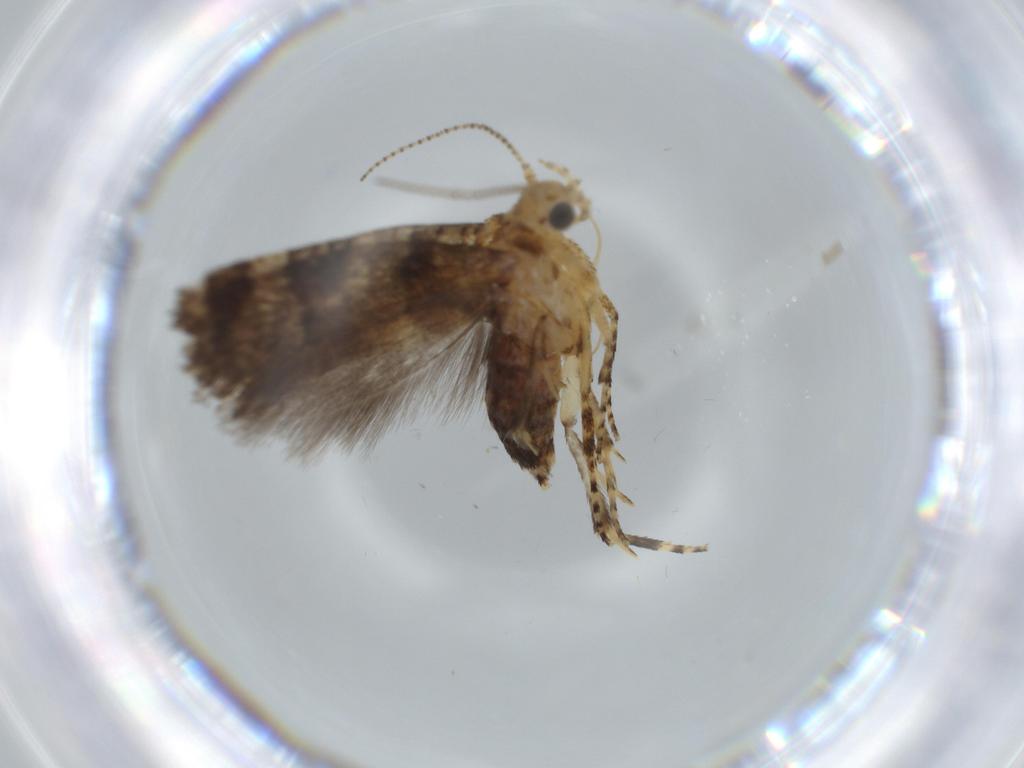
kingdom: Animalia
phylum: Arthropoda
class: Insecta
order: Lepidoptera
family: Glyphipterigidae
